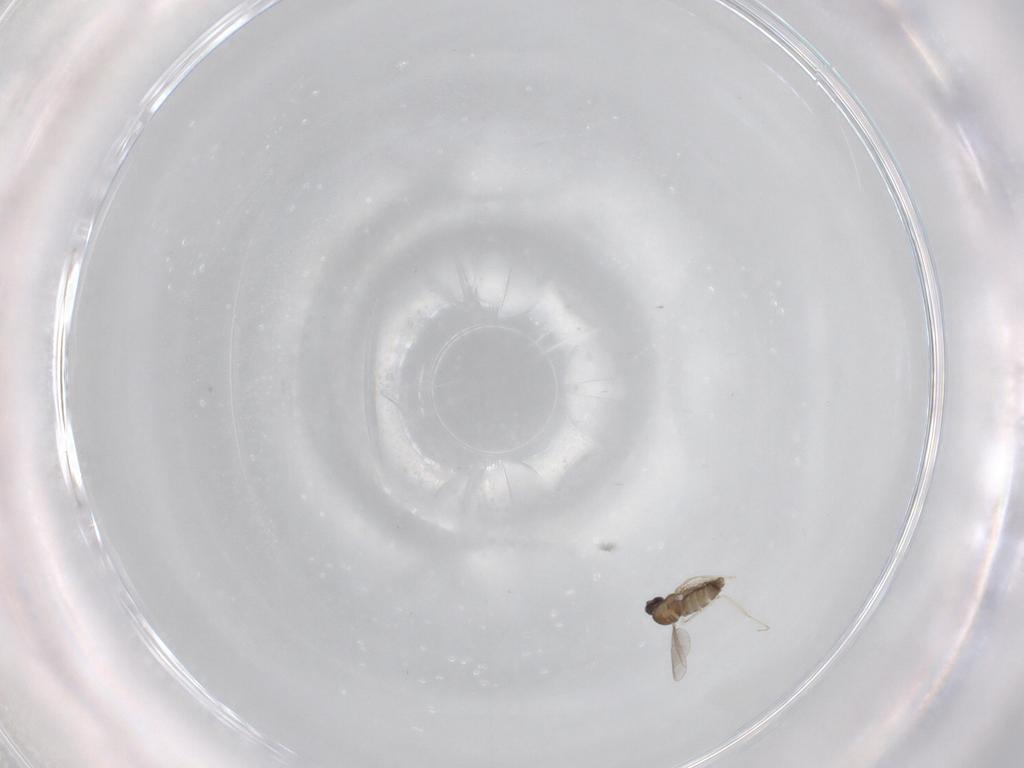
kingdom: Animalia
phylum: Arthropoda
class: Insecta
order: Diptera
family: Cecidomyiidae
